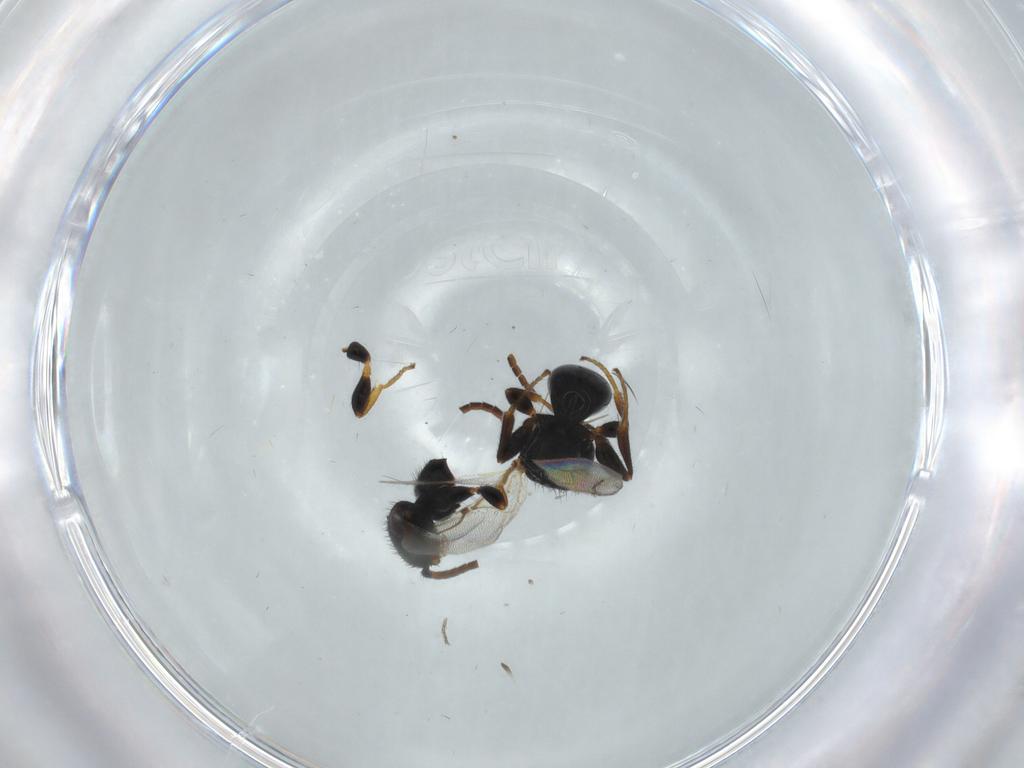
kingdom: Animalia
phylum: Arthropoda
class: Insecta
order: Hymenoptera
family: Bethylidae
